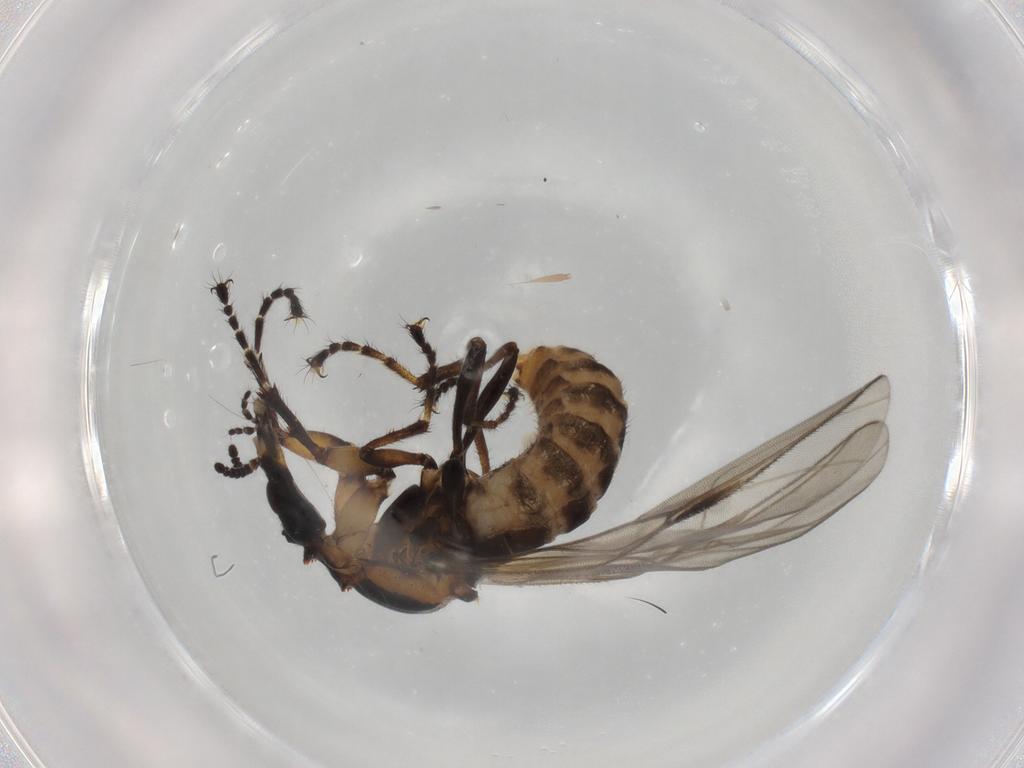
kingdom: Animalia
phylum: Arthropoda
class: Insecta
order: Diptera
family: Bibionidae
